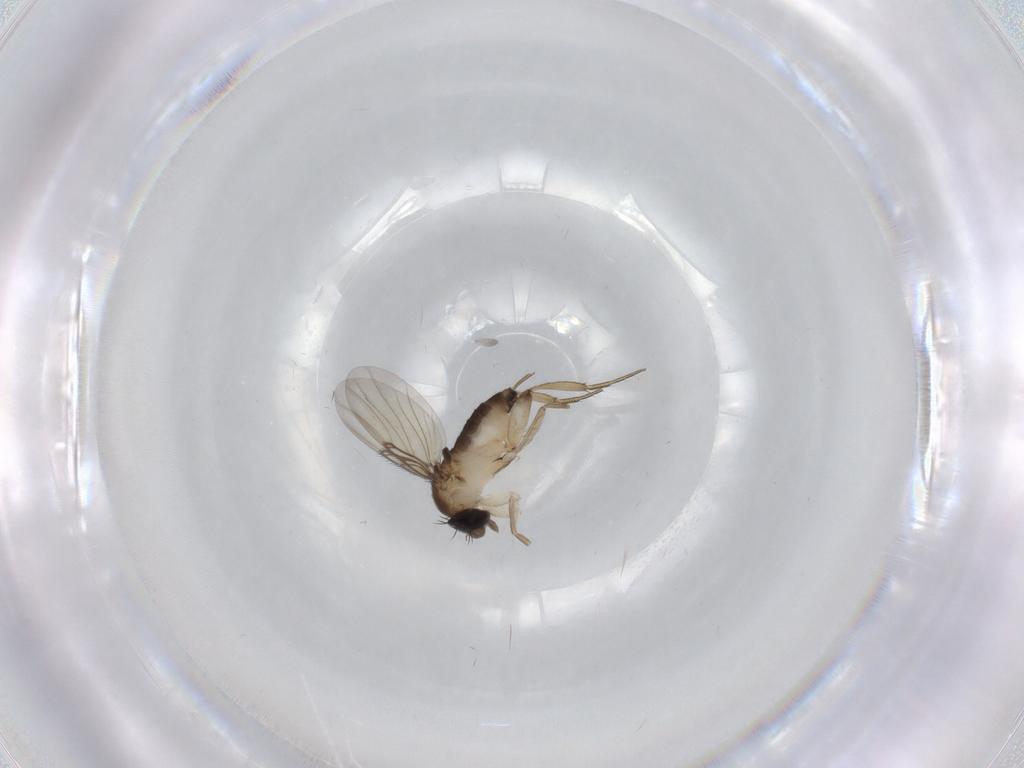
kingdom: Animalia
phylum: Arthropoda
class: Insecta
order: Diptera
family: Phoridae
